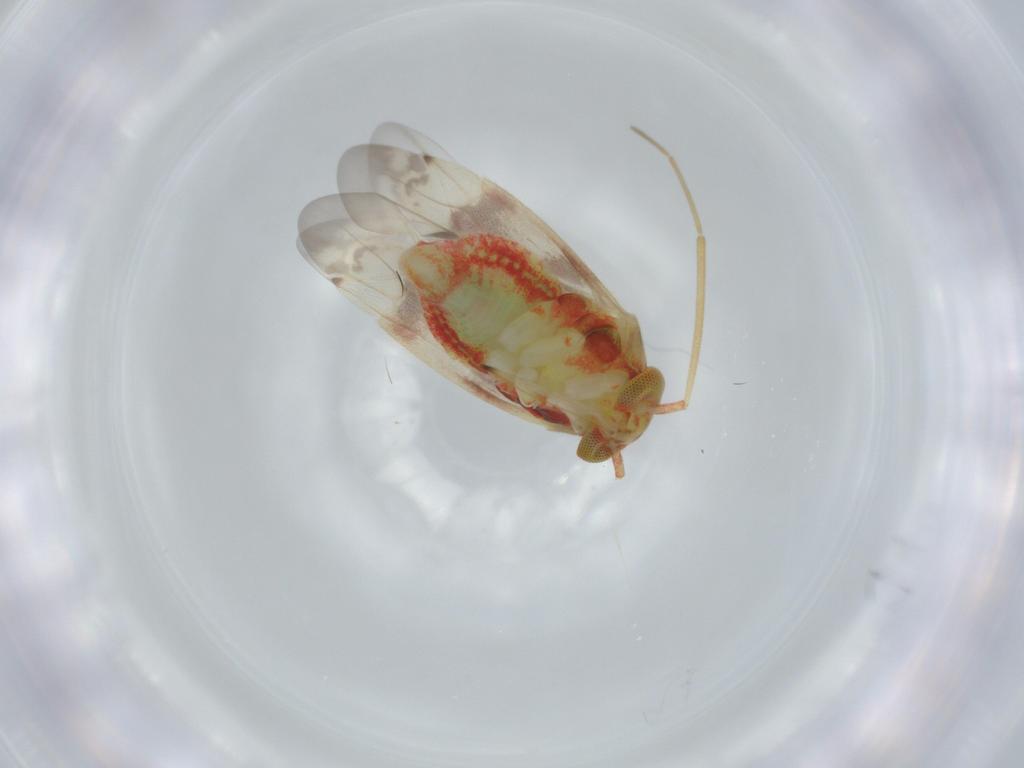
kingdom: Animalia
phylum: Arthropoda
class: Insecta
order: Hemiptera
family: Miridae
